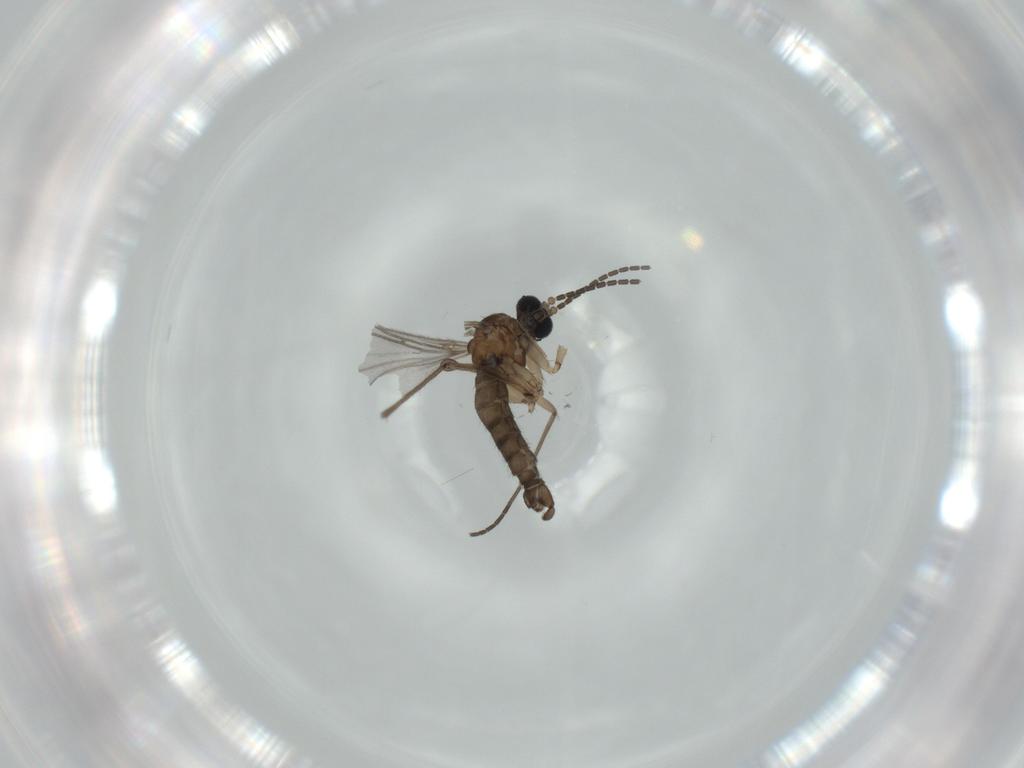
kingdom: Animalia
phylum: Arthropoda
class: Insecta
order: Diptera
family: Sciaridae
